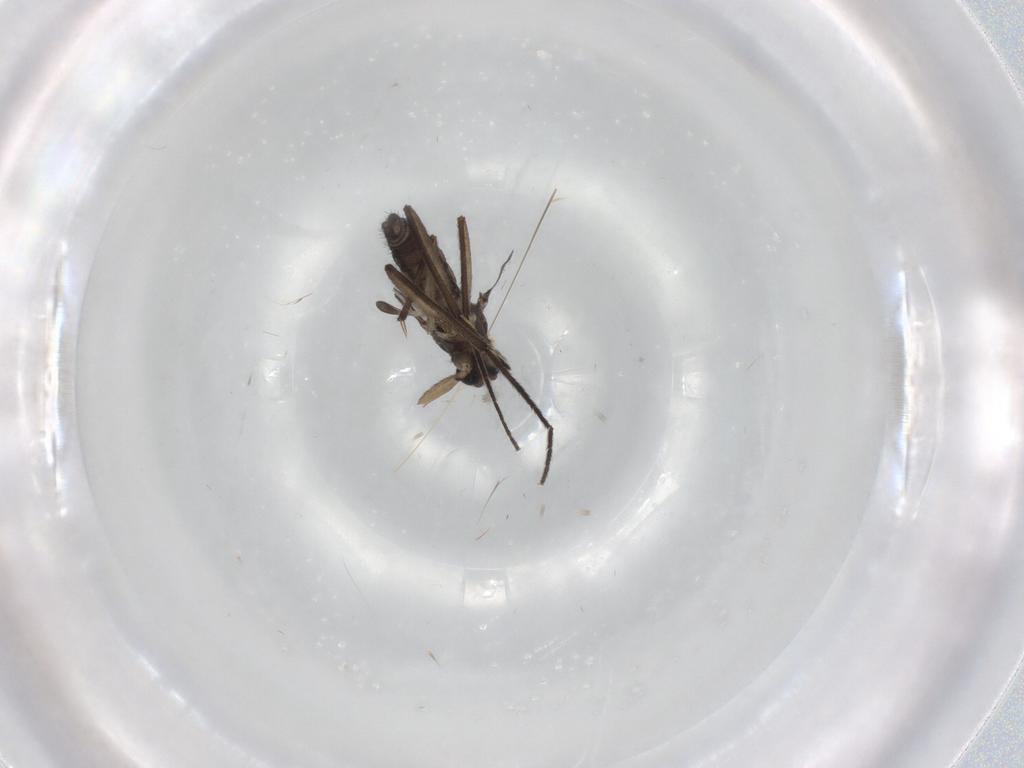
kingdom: Animalia
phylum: Arthropoda
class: Insecta
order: Diptera
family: Sciaridae
